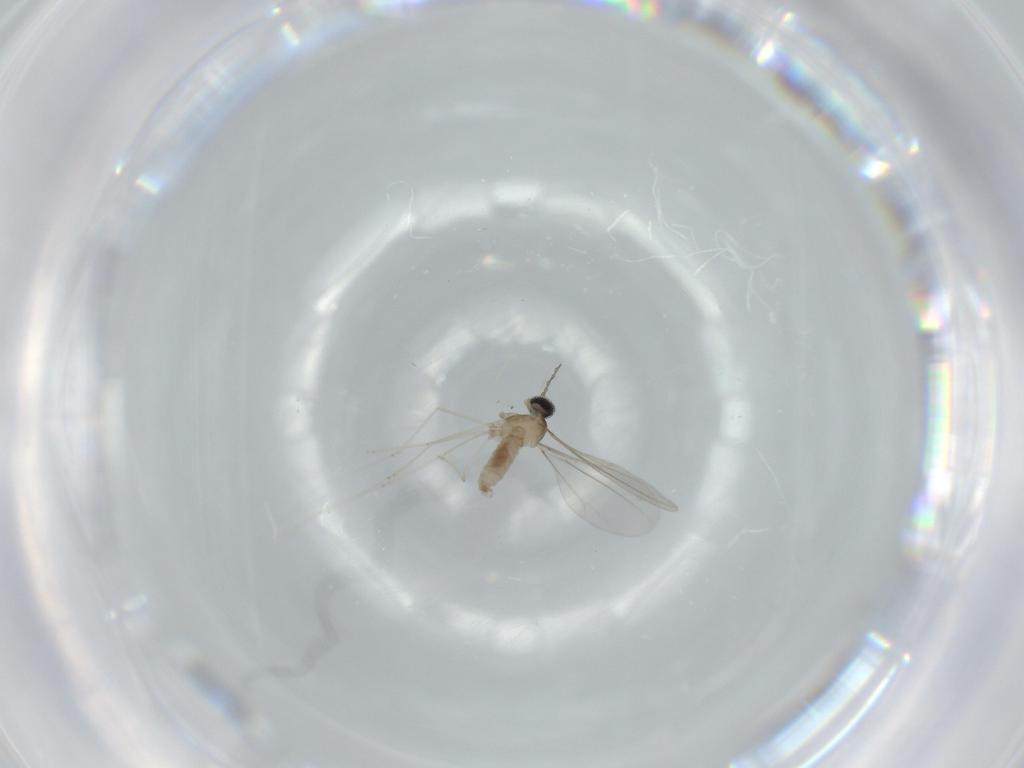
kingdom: Animalia
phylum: Arthropoda
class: Insecta
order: Diptera
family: Cecidomyiidae
